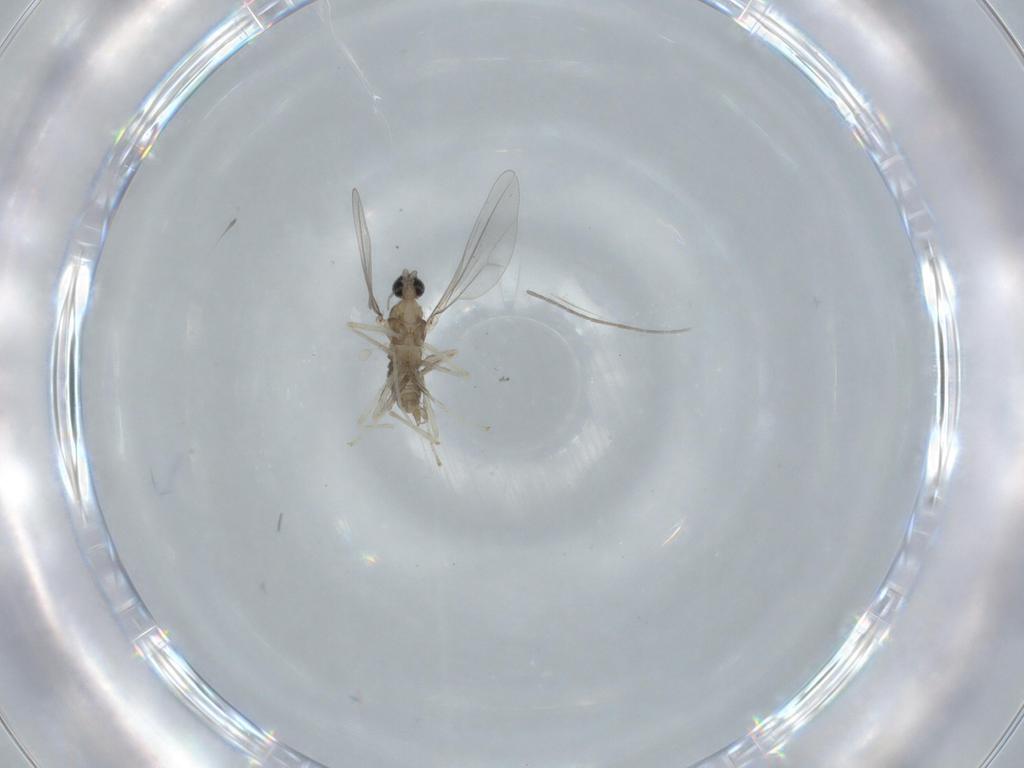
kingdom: Animalia
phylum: Arthropoda
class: Insecta
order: Diptera
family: Cecidomyiidae
